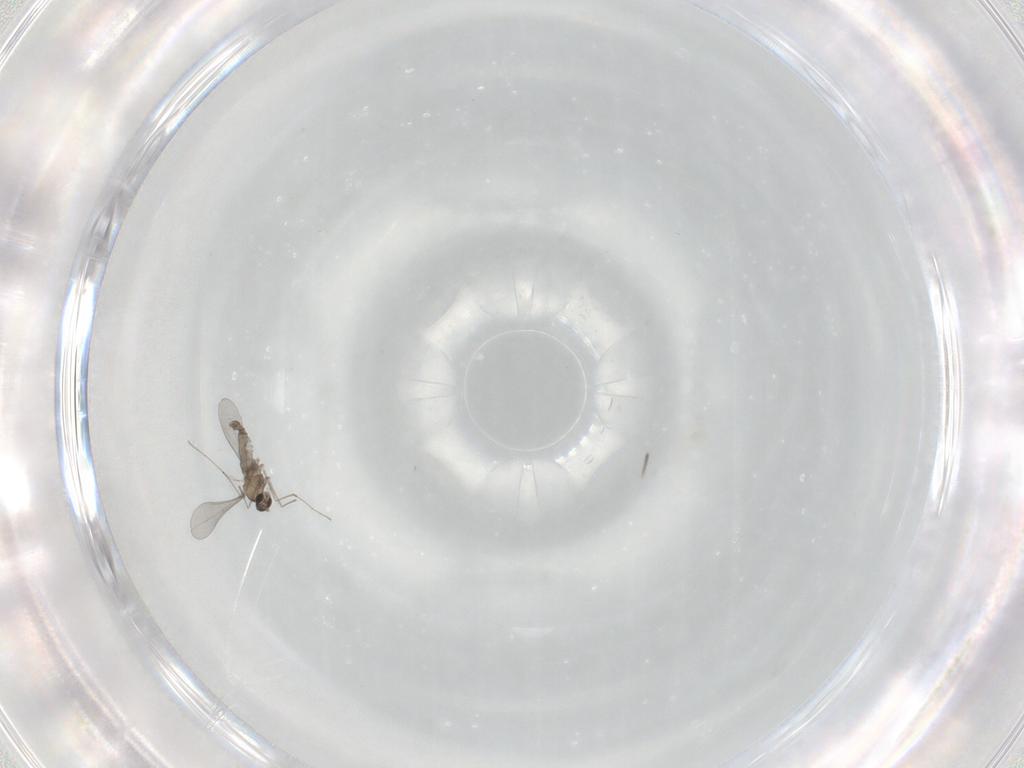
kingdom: Animalia
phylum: Arthropoda
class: Insecta
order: Diptera
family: Cecidomyiidae
